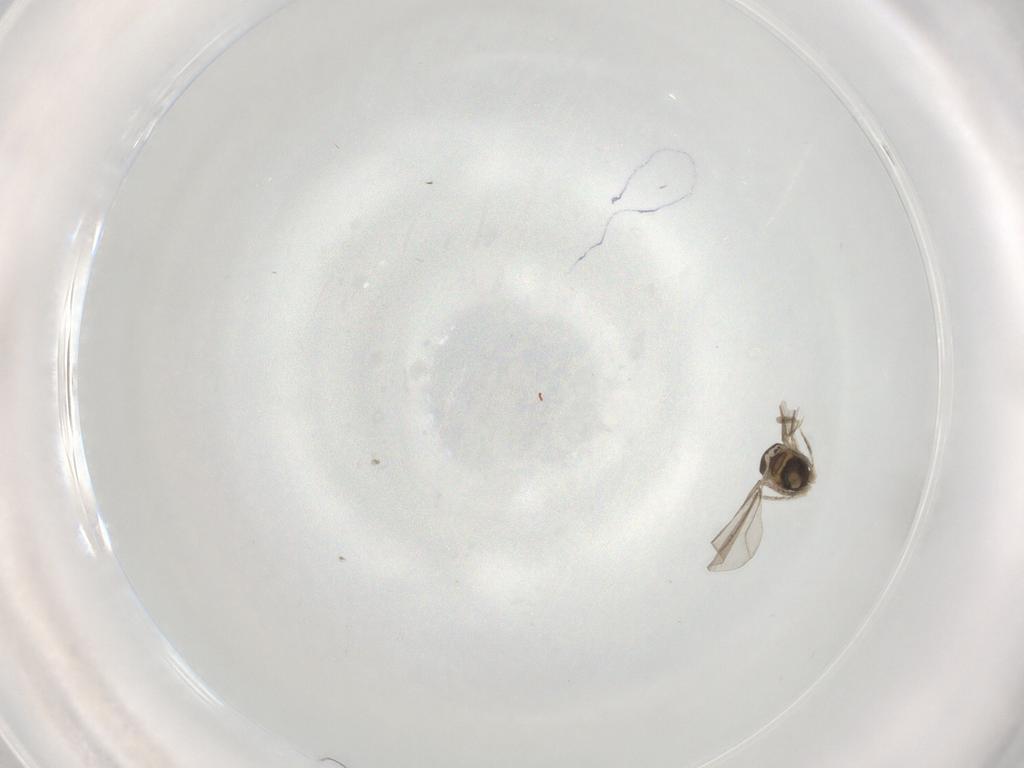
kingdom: Animalia
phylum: Arthropoda
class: Insecta
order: Diptera
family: Cecidomyiidae
